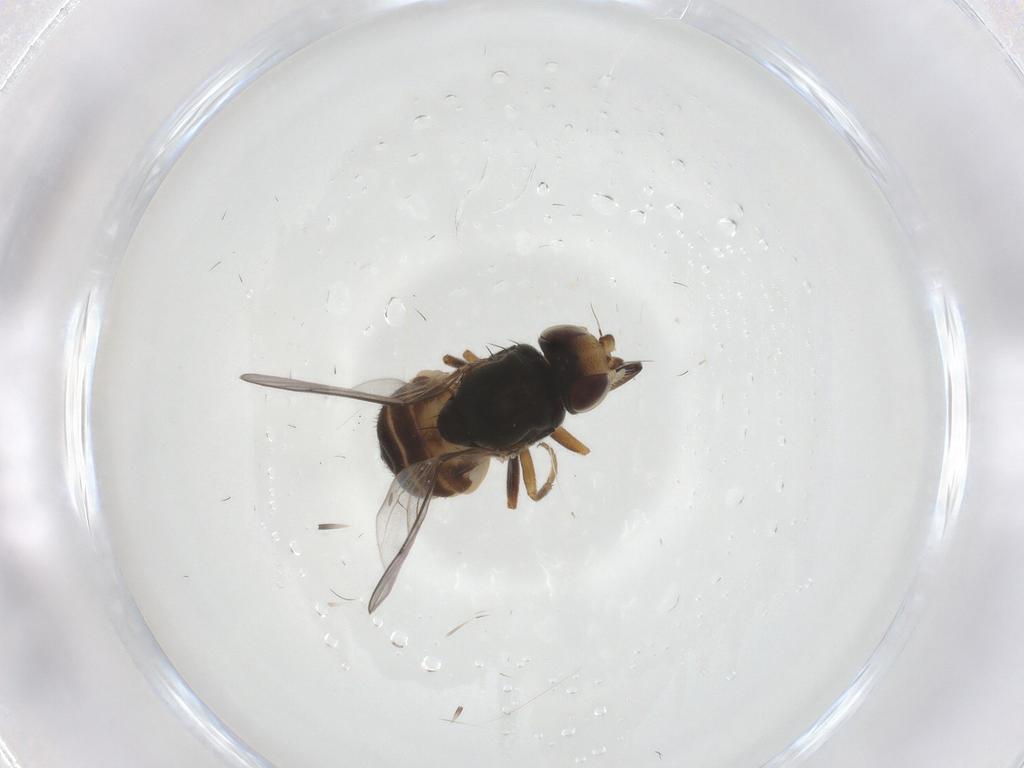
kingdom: Animalia
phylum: Arthropoda
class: Insecta
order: Diptera
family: Chloropidae
